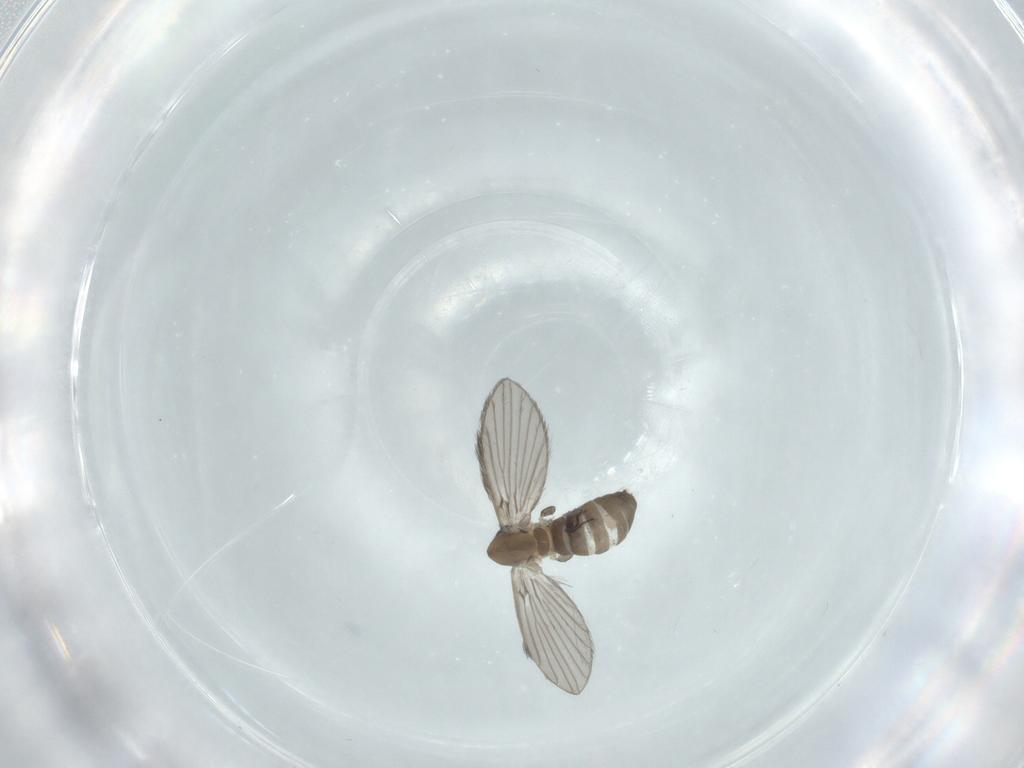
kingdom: Animalia
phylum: Arthropoda
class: Insecta
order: Diptera
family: Psychodidae
